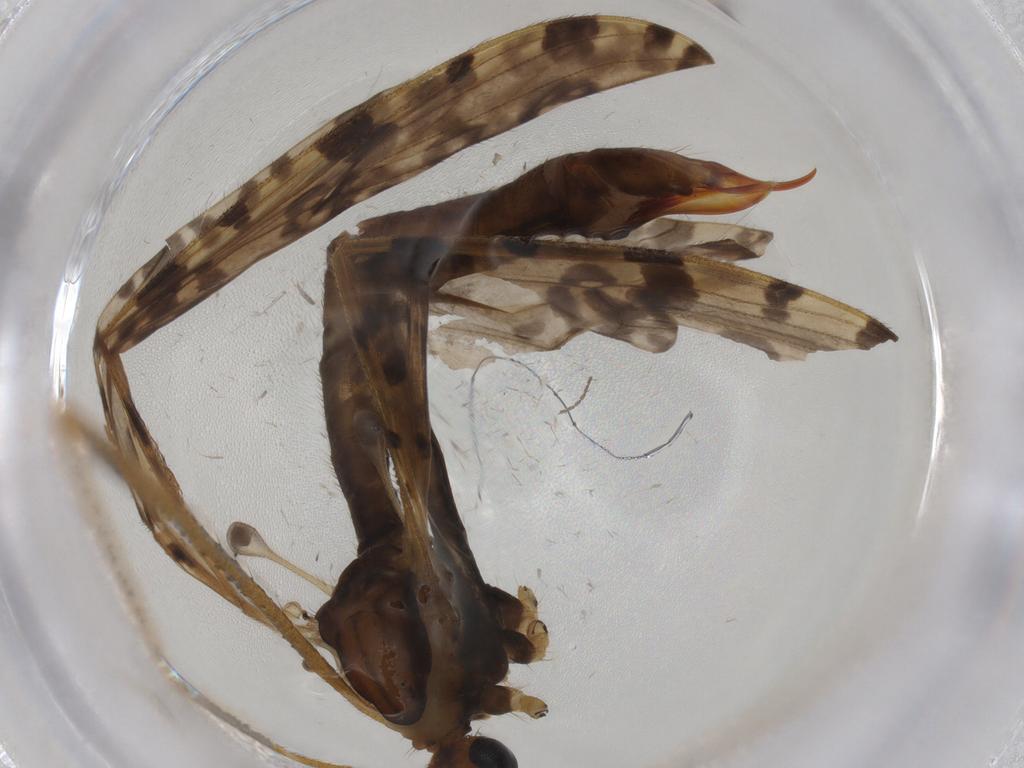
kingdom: Animalia
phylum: Arthropoda
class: Insecta
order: Diptera
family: Limoniidae
